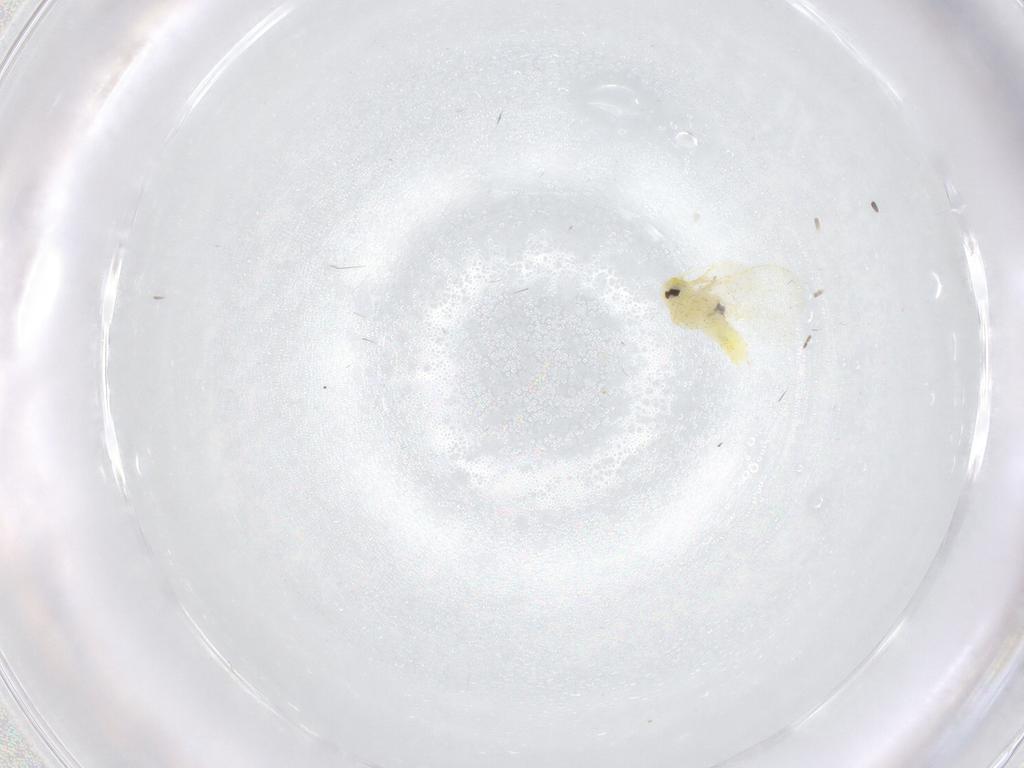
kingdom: Animalia
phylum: Arthropoda
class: Insecta
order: Hemiptera
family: Aleyrodidae
